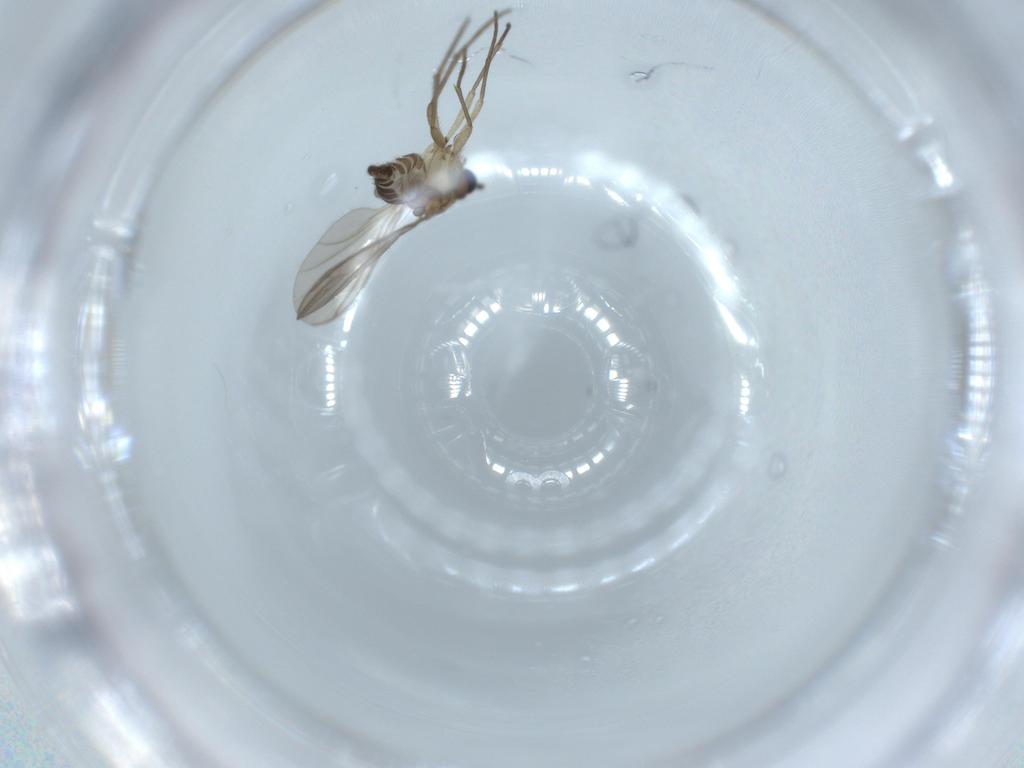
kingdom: Animalia
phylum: Arthropoda
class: Insecta
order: Diptera
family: Sciaridae
